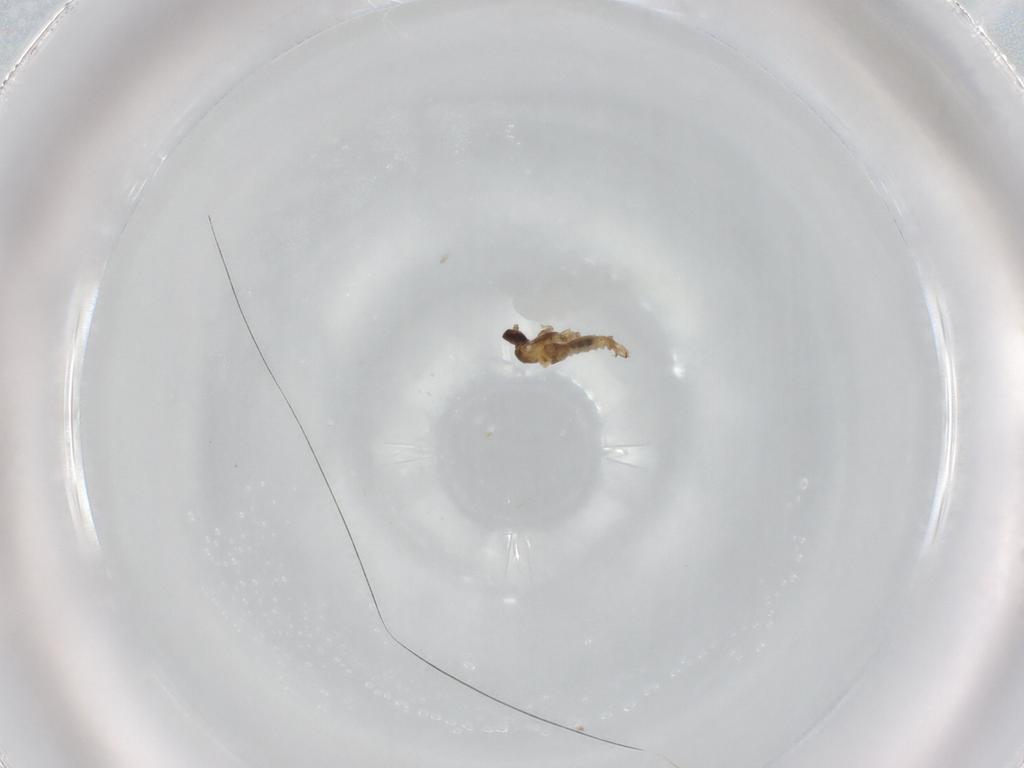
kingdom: Animalia
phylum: Arthropoda
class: Insecta
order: Diptera
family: Cecidomyiidae
